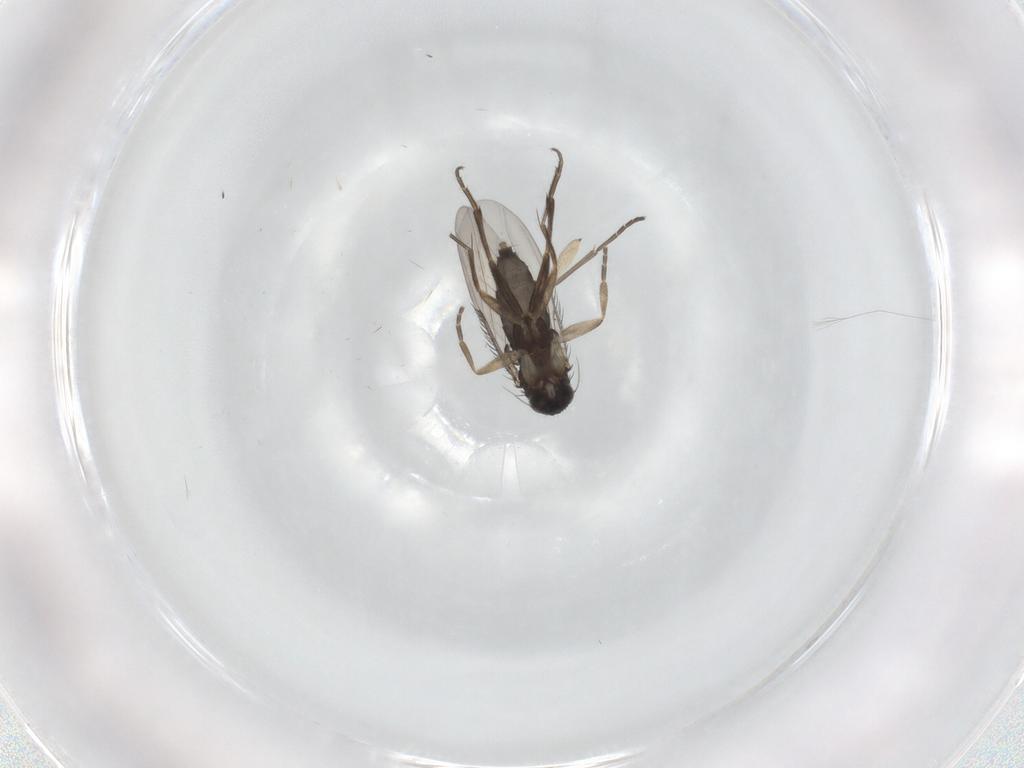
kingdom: Animalia
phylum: Arthropoda
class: Insecta
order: Diptera
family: Phoridae
